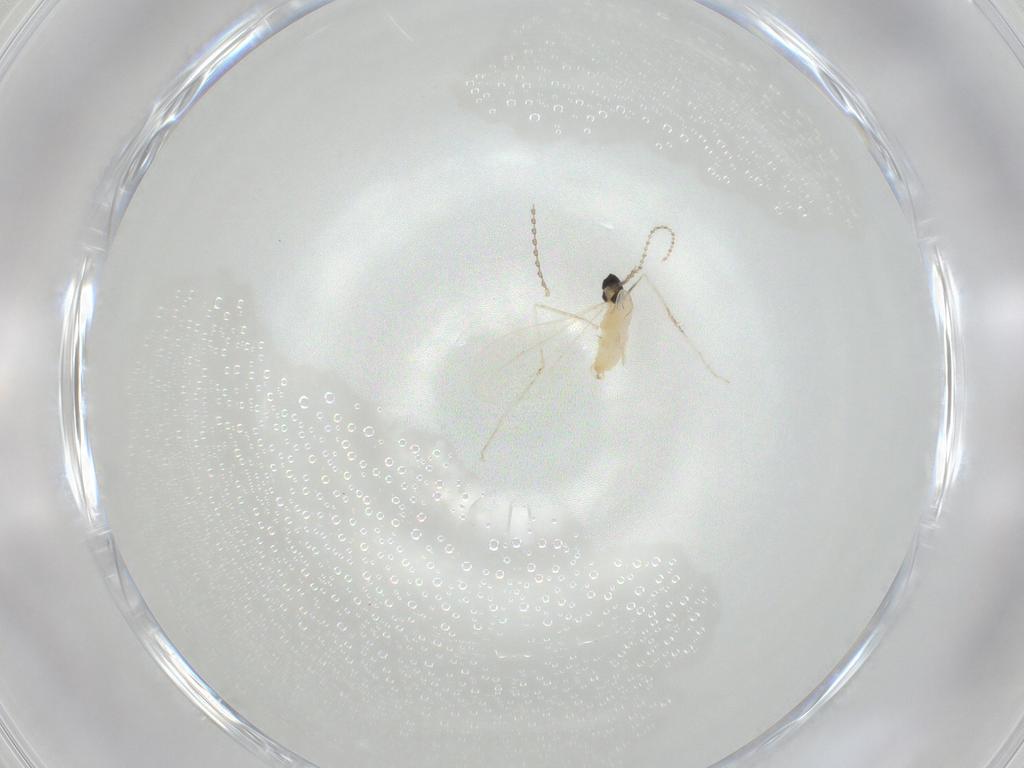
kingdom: Animalia
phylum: Arthropoda
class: Insecta
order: Diptera
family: Cecidomyiidae
